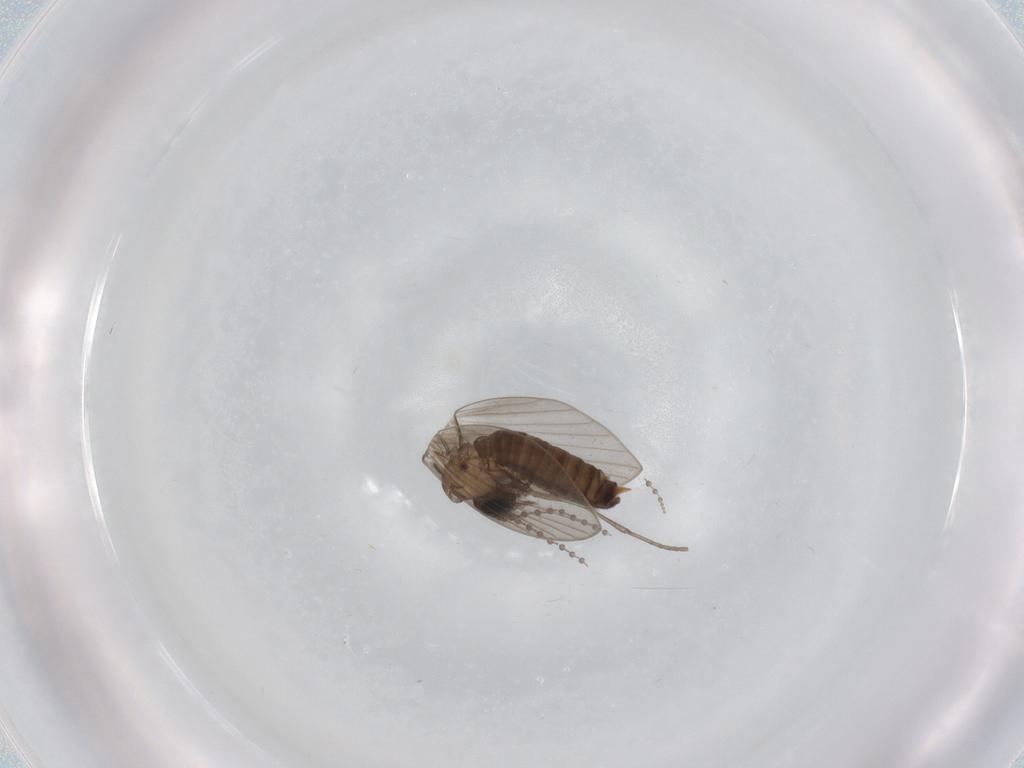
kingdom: Animalia
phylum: Arthropoda
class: Insecta
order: Diptera
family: Psychodidae
